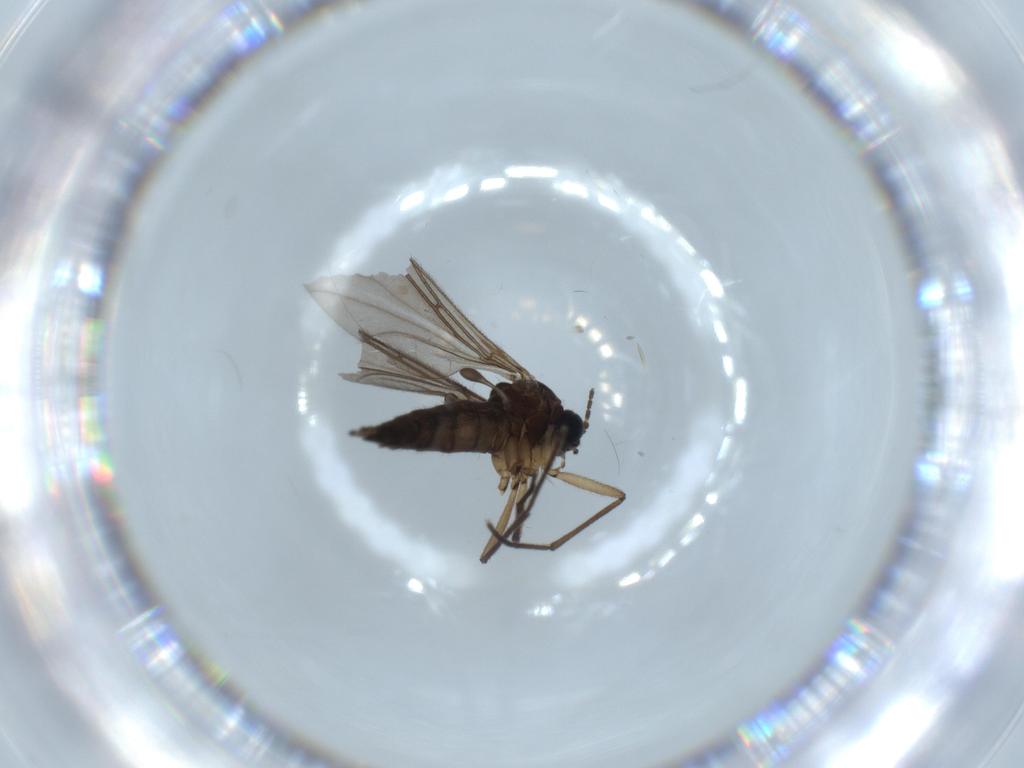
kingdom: Animalia
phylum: Arthropoda
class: Insecta
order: Diptera
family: Sciaridae
